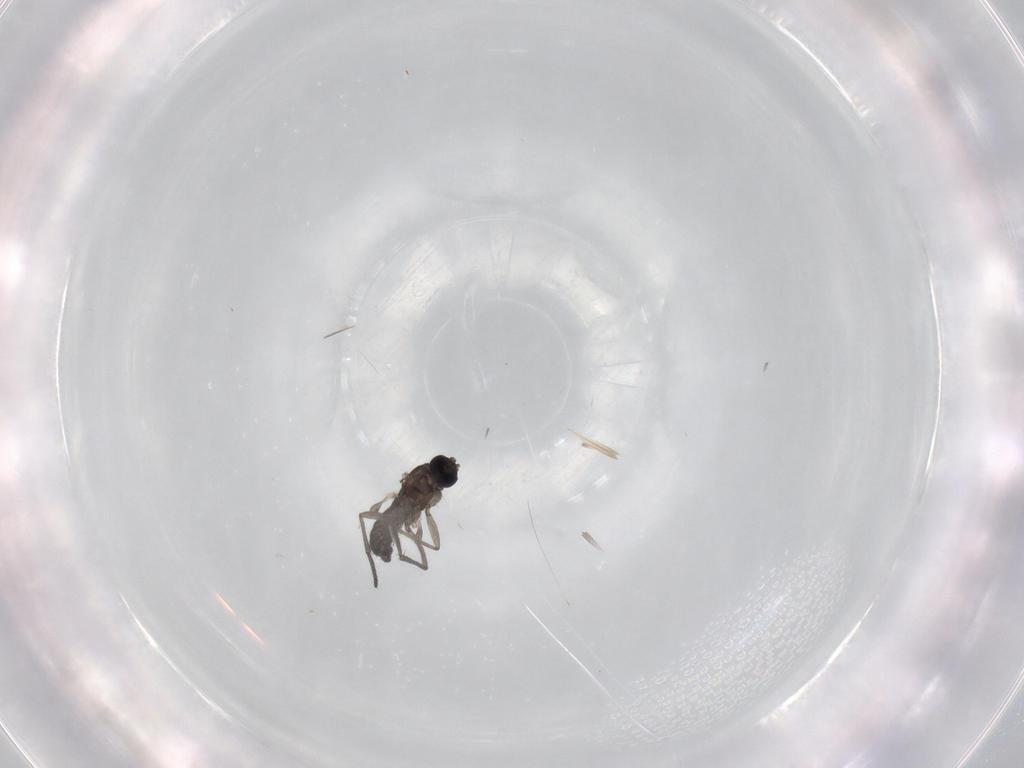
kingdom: Animalia
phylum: Arthropoda
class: Insecta
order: Diptera
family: Sciaridae
